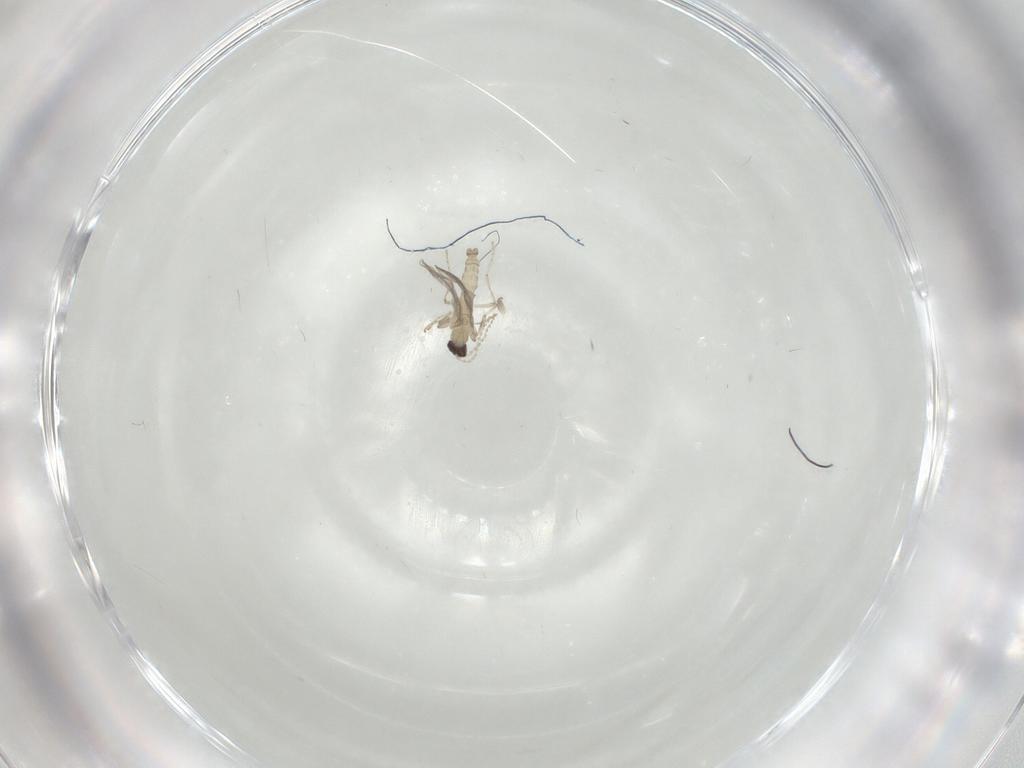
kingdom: Animalia
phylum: Arthropoda
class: Insecta
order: Diptera
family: Cecidomyiidae
